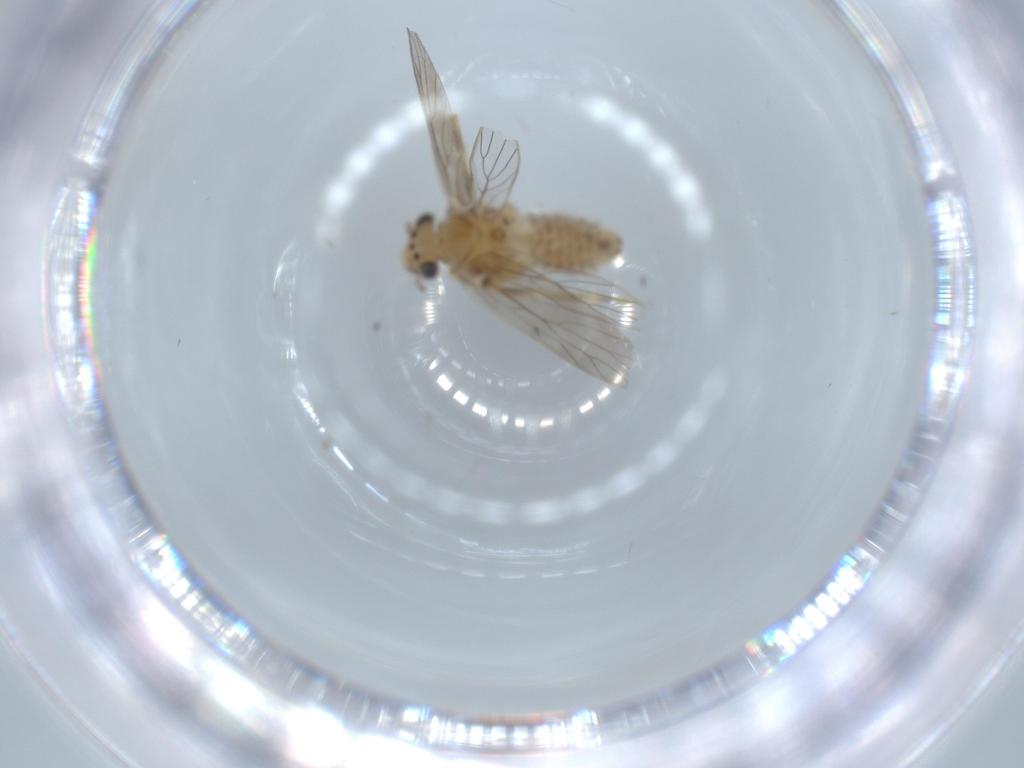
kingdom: Animalia
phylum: Arthropoda
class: Insecta
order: Psocodea
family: Lepidopsocidae
